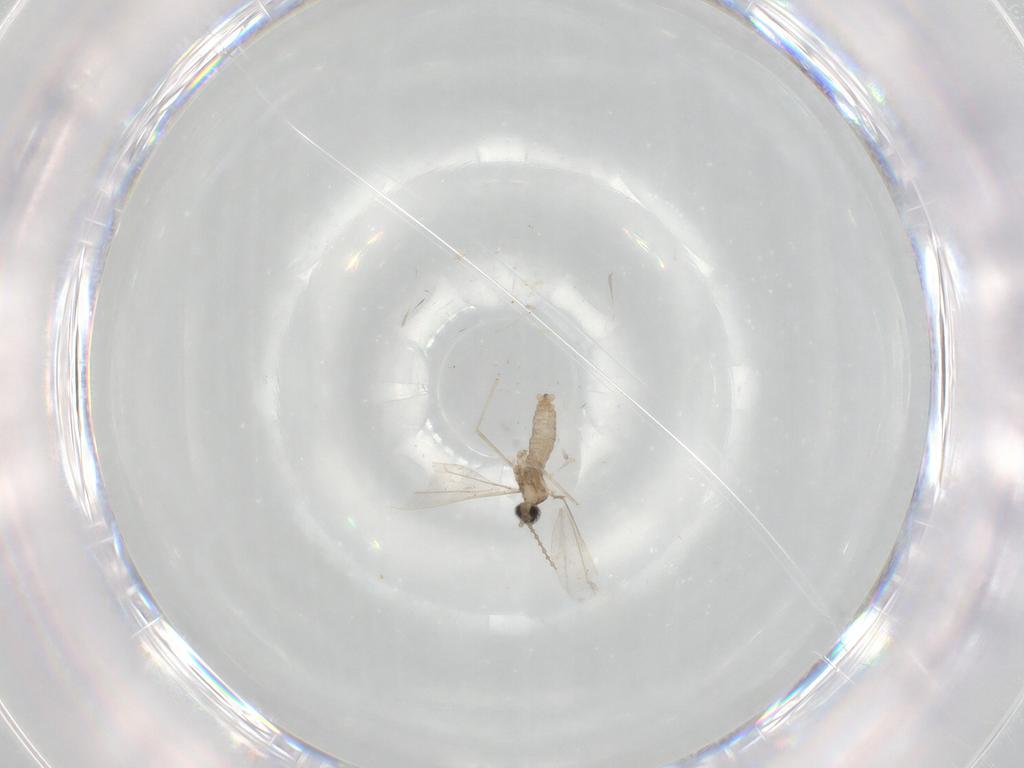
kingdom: Animalia
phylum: Arthropoda
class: Insecta
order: Diptera
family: Cecidomyiidae
